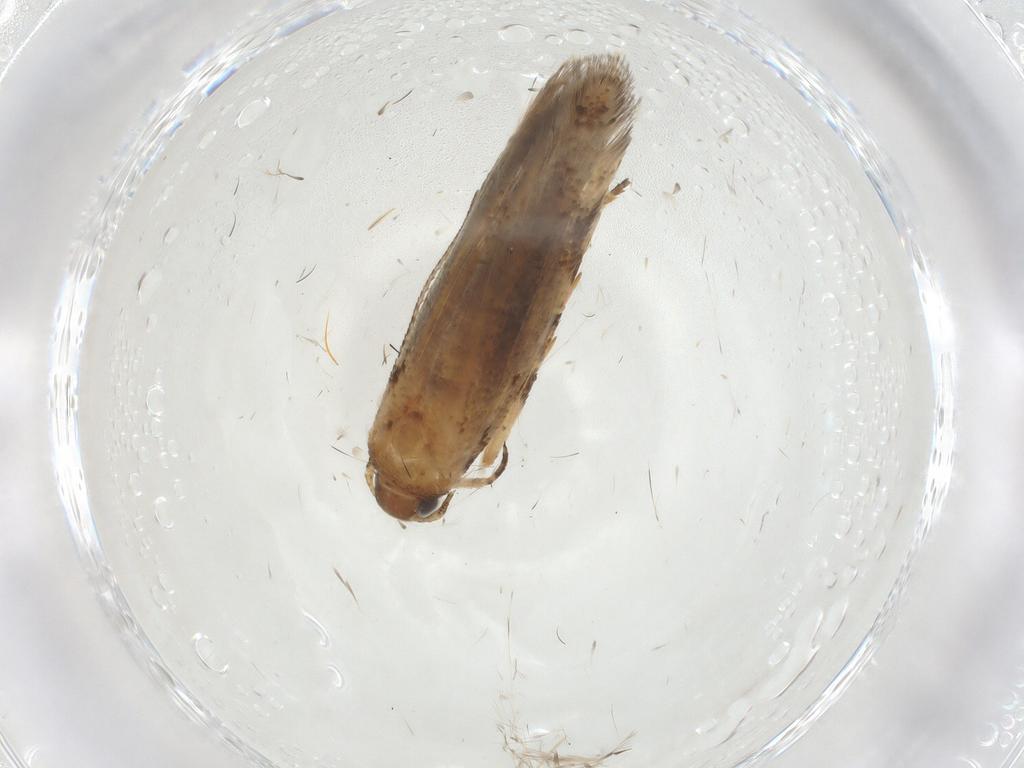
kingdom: Animalia
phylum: Arthropoda
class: Insecta
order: Lepidoptera
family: Gelechiidae
